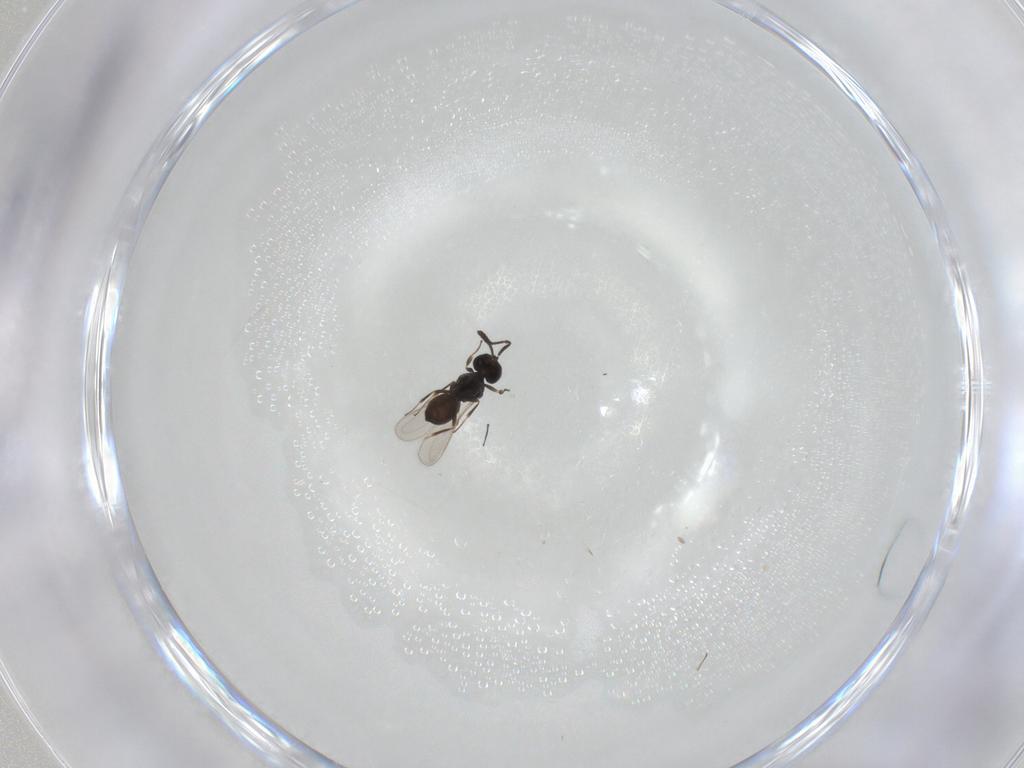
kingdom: Animalia
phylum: Arthropoda
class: Insecta
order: Hymenoptera
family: Scelionidae
